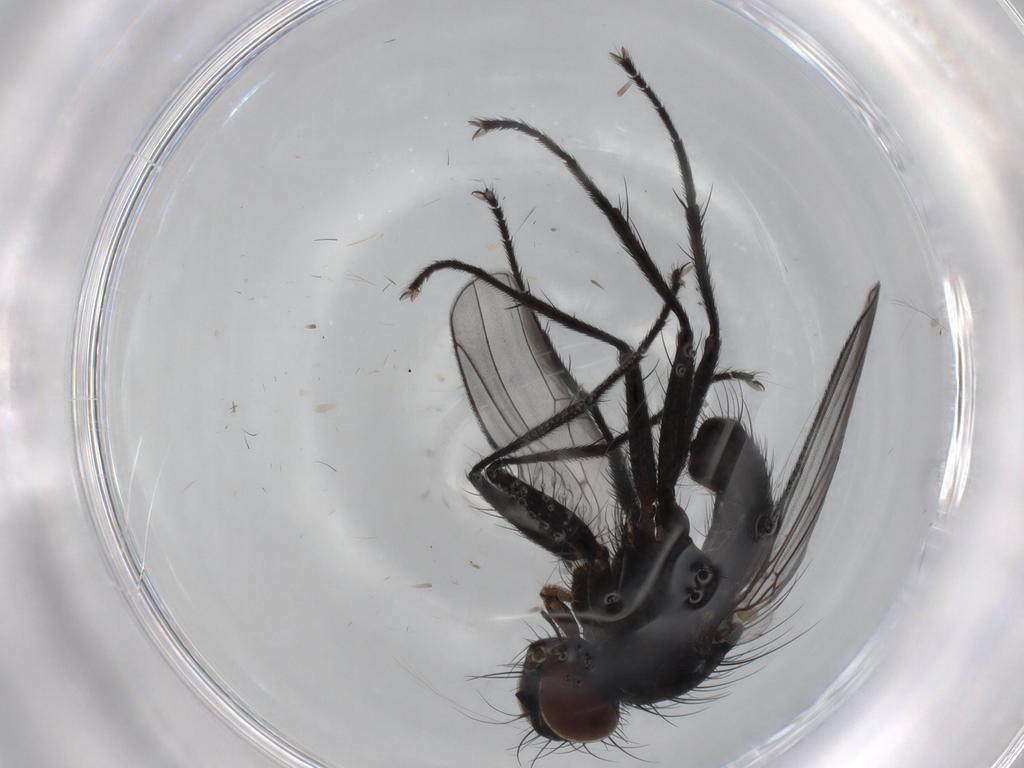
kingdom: Animalia
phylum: Arthropoda
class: Insecta
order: Diptera
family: Muscidae
